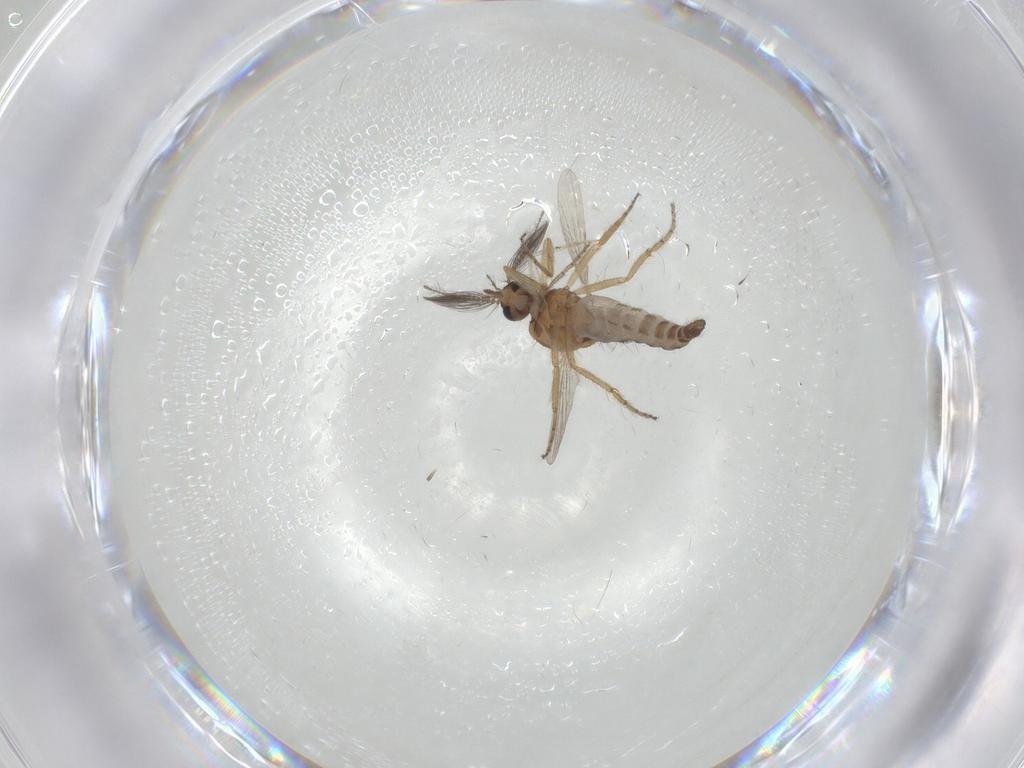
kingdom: Animalia
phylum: Arthropoda
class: Insecta
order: Diptera
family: Ceratopogonidae
